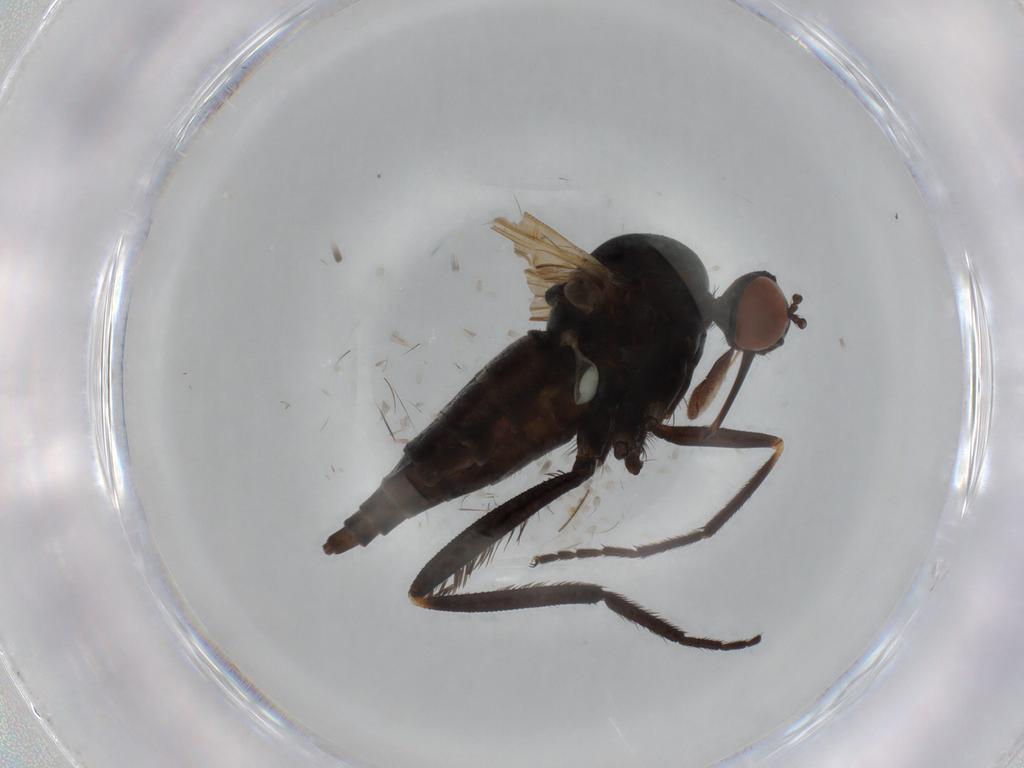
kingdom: Animalia
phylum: Arthropoda
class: Insecta
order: Diptera
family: Empididae
